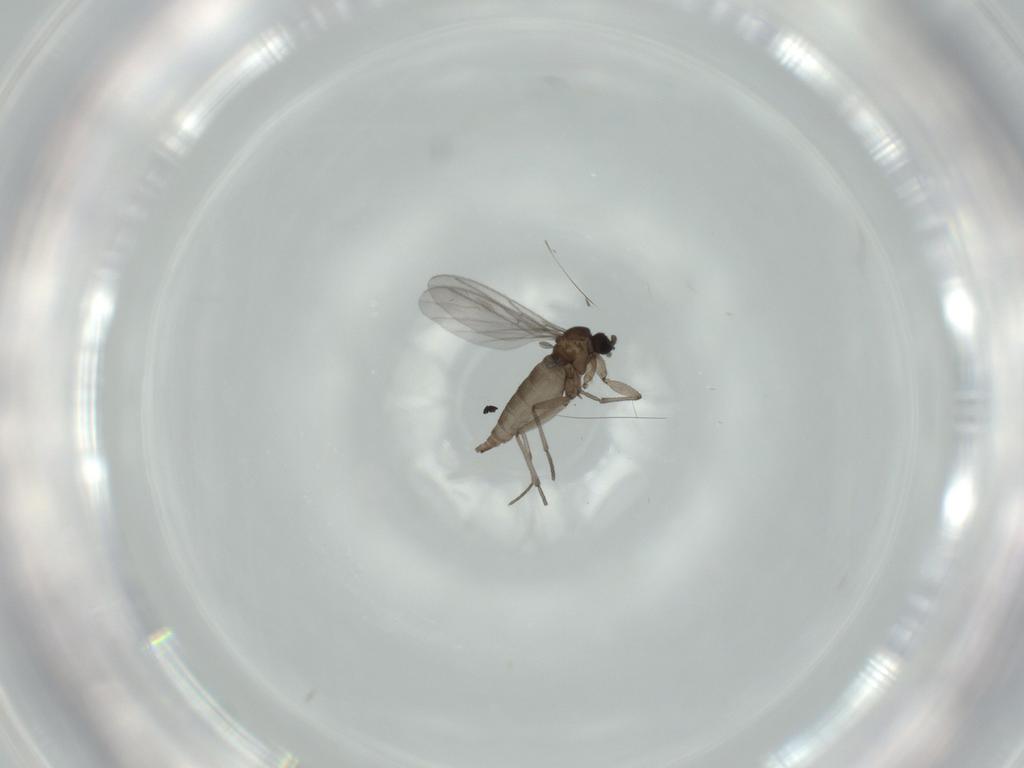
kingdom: Animalia
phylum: Arthropoda
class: Insecta
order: Diptera
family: Sciaridae
